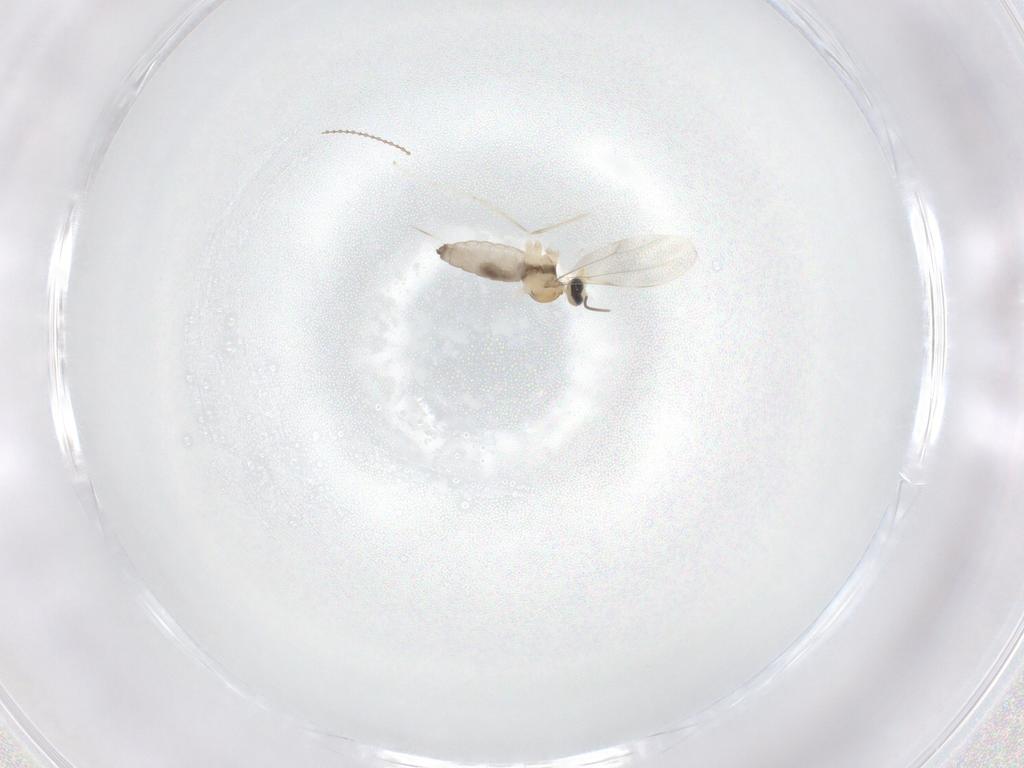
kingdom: Animalia
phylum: Arthropoda
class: Insecta
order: Diptera
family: Cecidomyiidae
